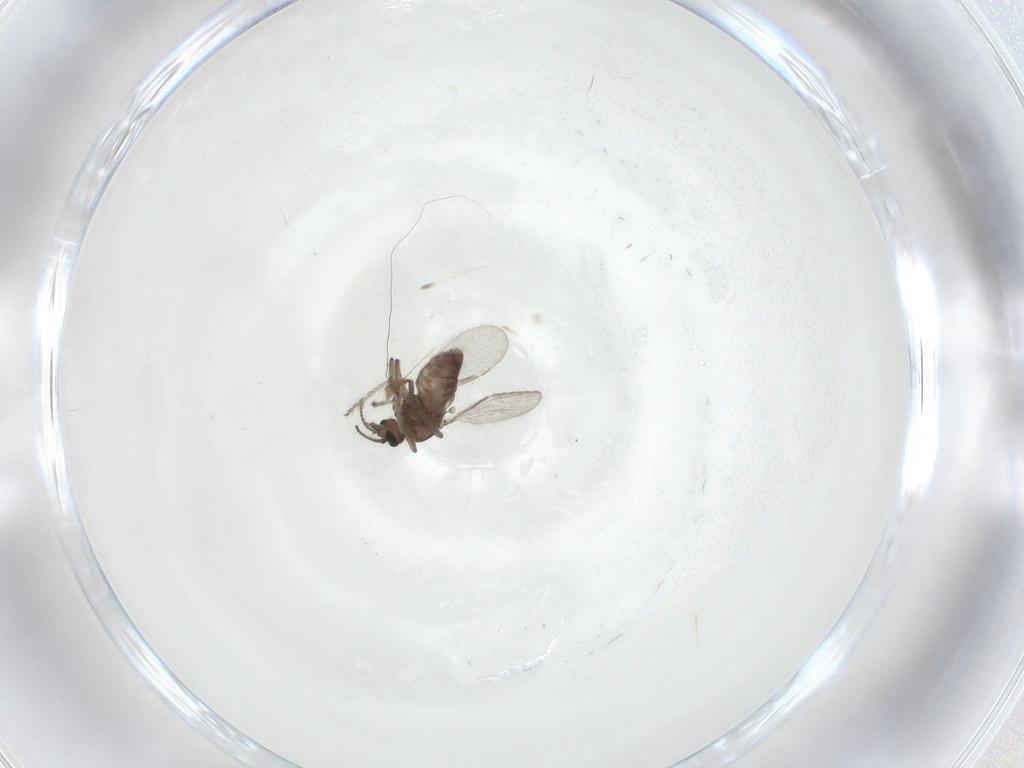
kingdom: Animalia
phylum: Arthropoda
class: Insecta
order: Diptera
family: Ceratopogonidae
